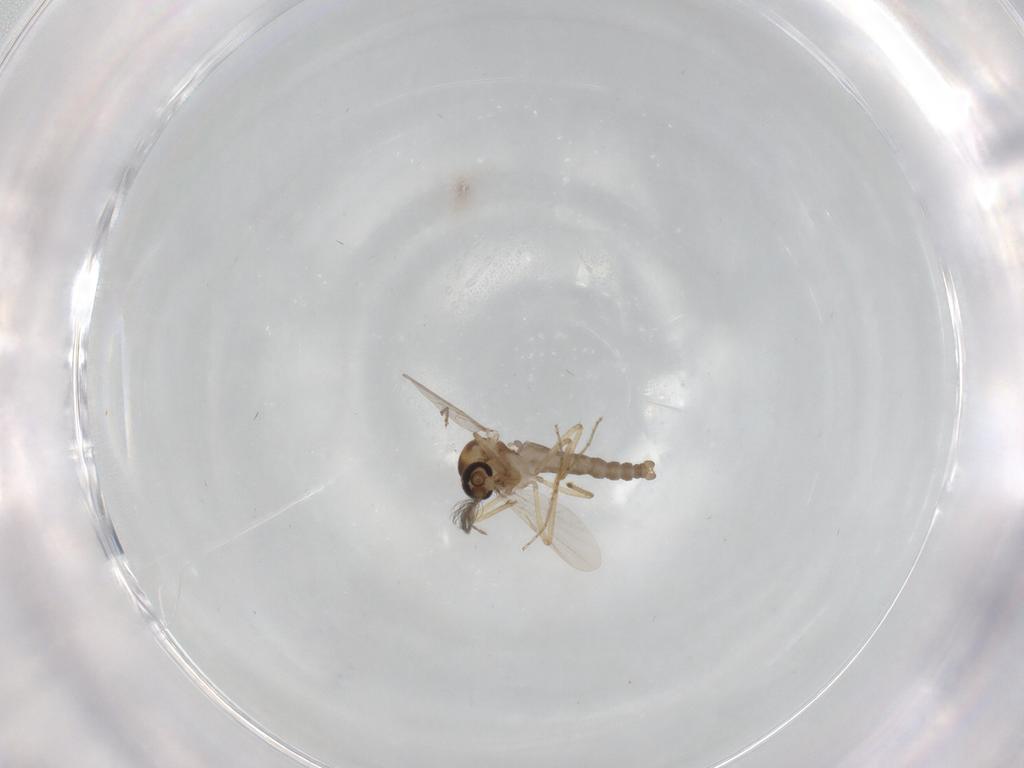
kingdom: Animalia
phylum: Arthropoda
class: Insecta
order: Diptera
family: Ceratopogonidae
